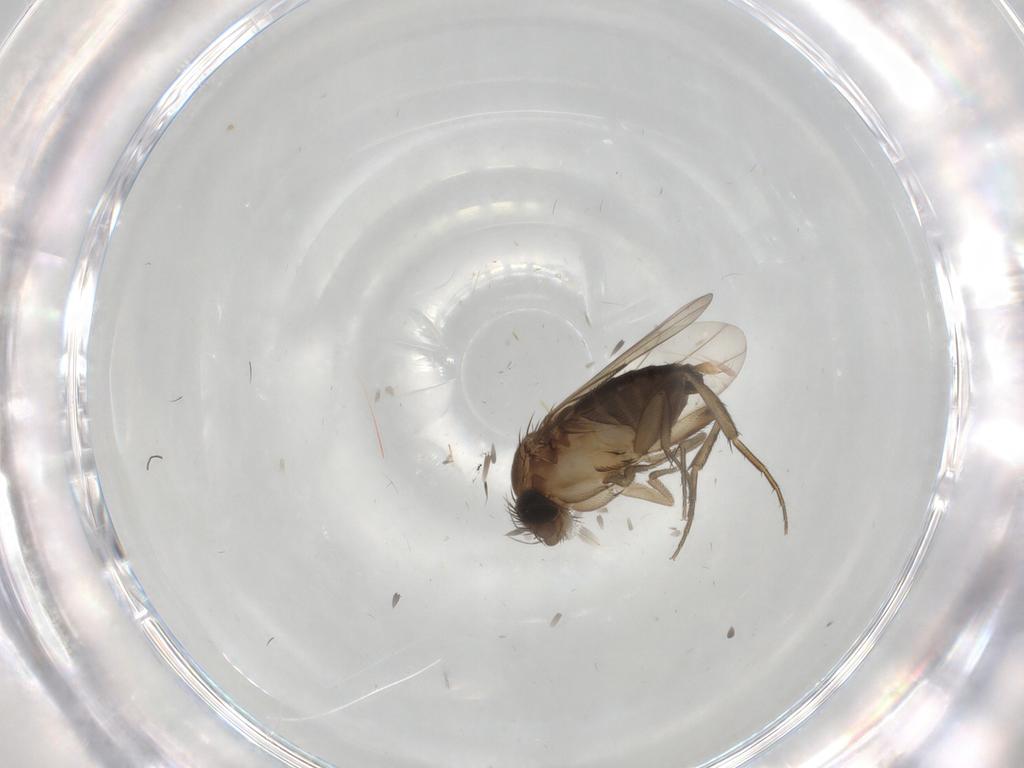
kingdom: Animalia
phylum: Arthropoda
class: Insecta
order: Diptera
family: Phoridae
